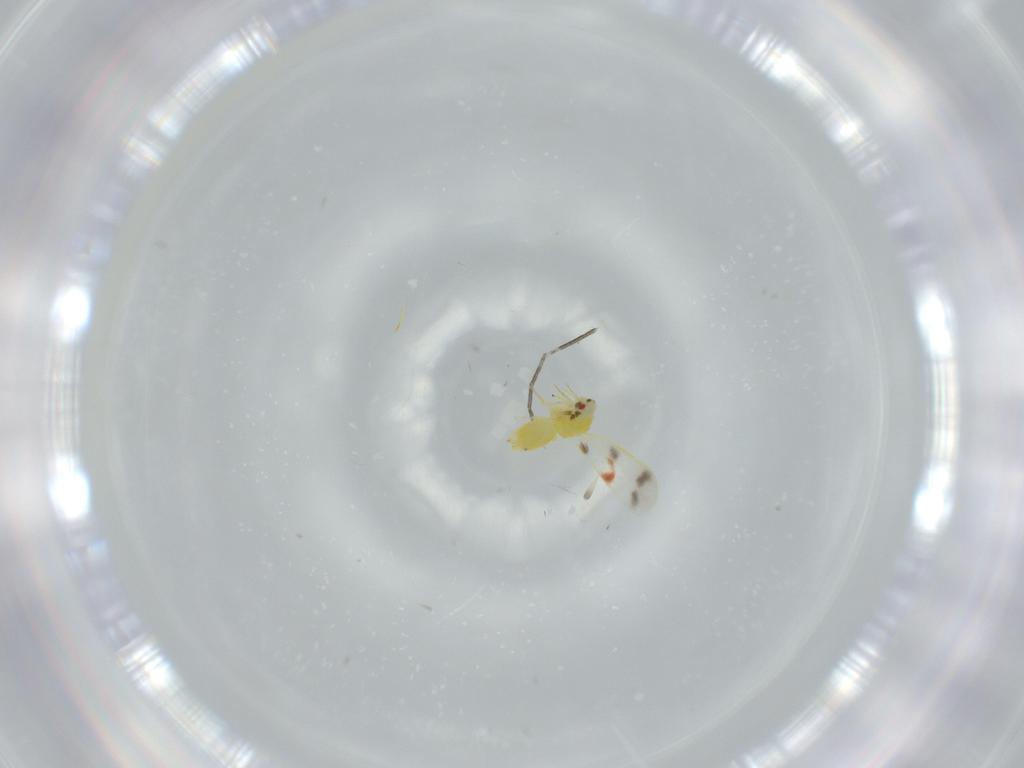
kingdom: Animalia
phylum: Arthropoda
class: Insecta
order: Hemiptera
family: Aleyrodidae
